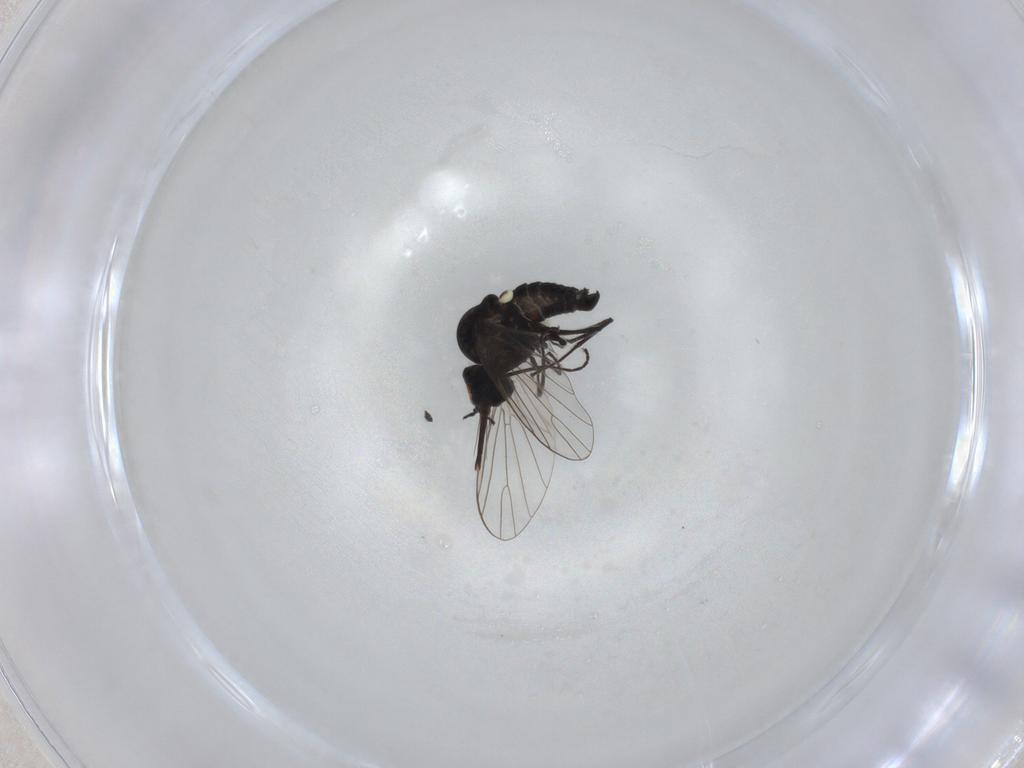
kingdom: Animalia
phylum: Arthropoda
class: Insecta
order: Diptera
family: Bombyliidae
